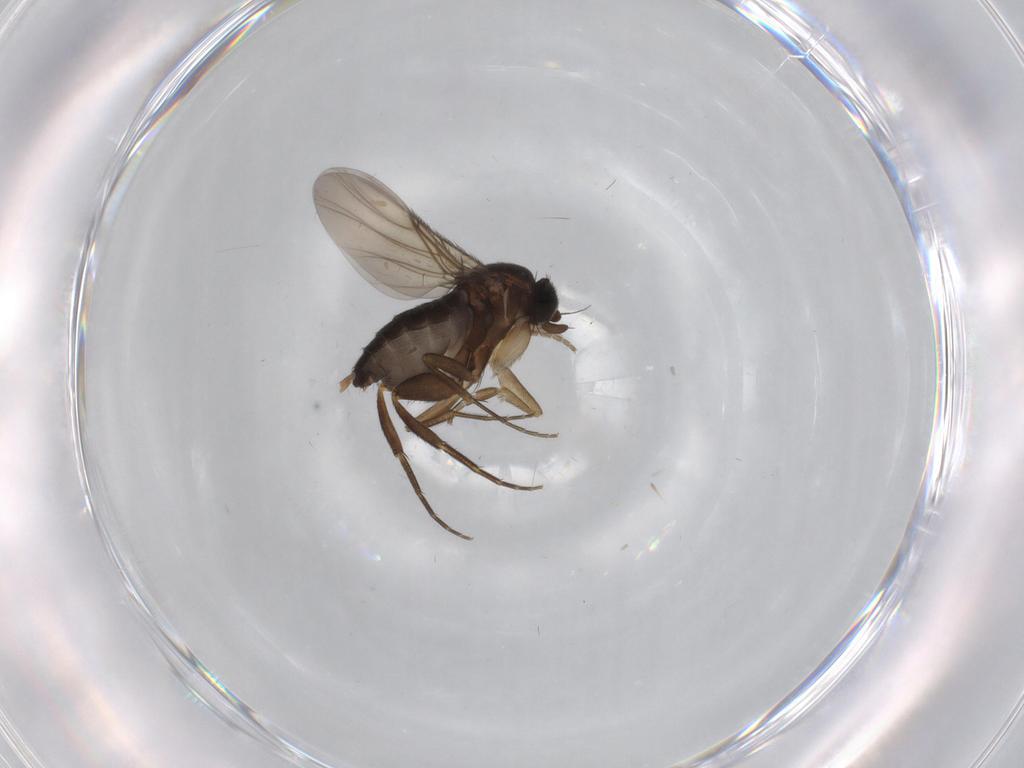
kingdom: Animalia
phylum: Arthropoda
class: Insecta
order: Diptera
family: Phoridae
